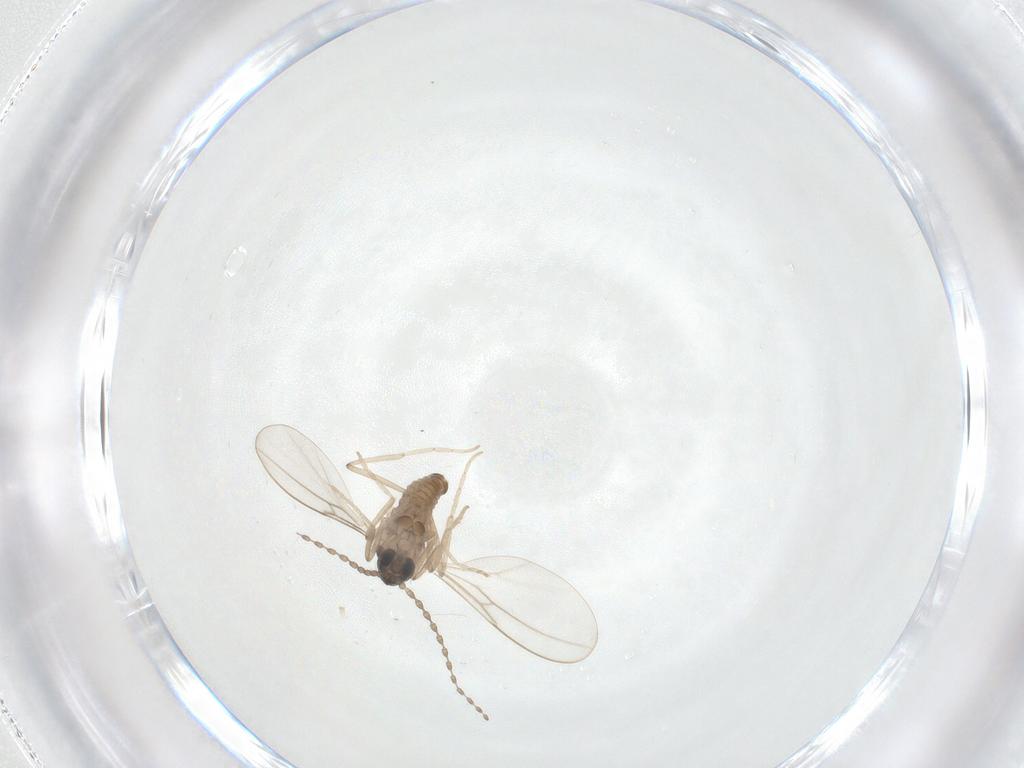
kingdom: Animalia
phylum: Arthropoda
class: Insecta
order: Diptera
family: Cecidomyiidae
